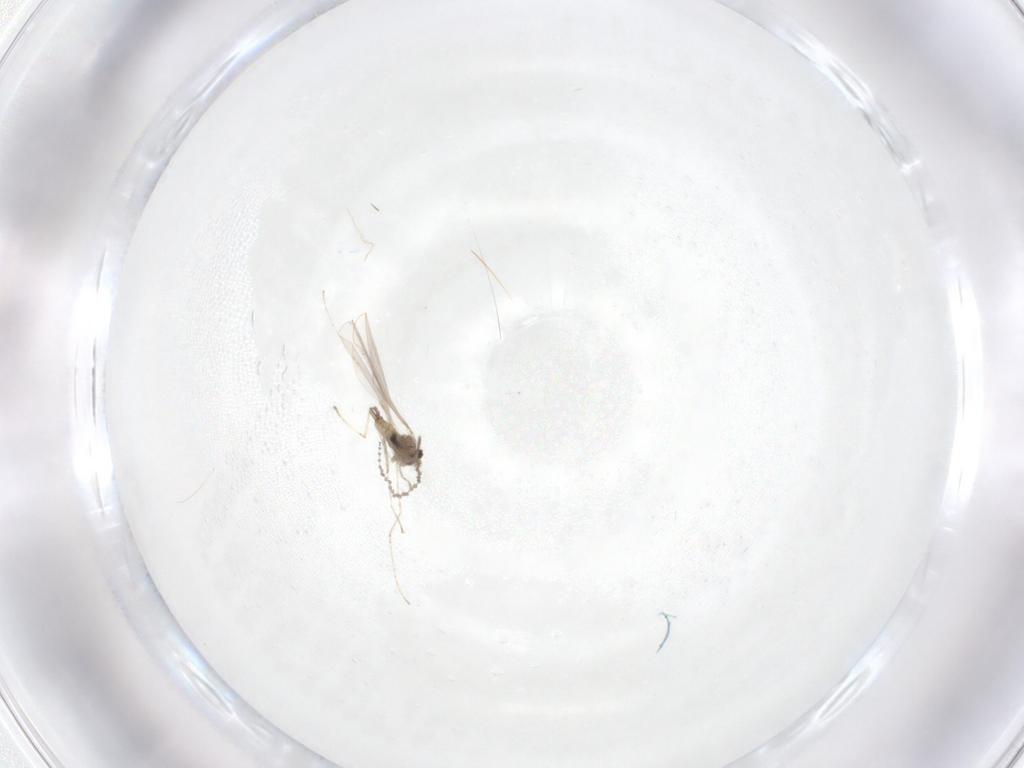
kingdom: Animalia
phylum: Arthropoda
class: Insecta
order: Diptera
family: Cecidomyiidae
